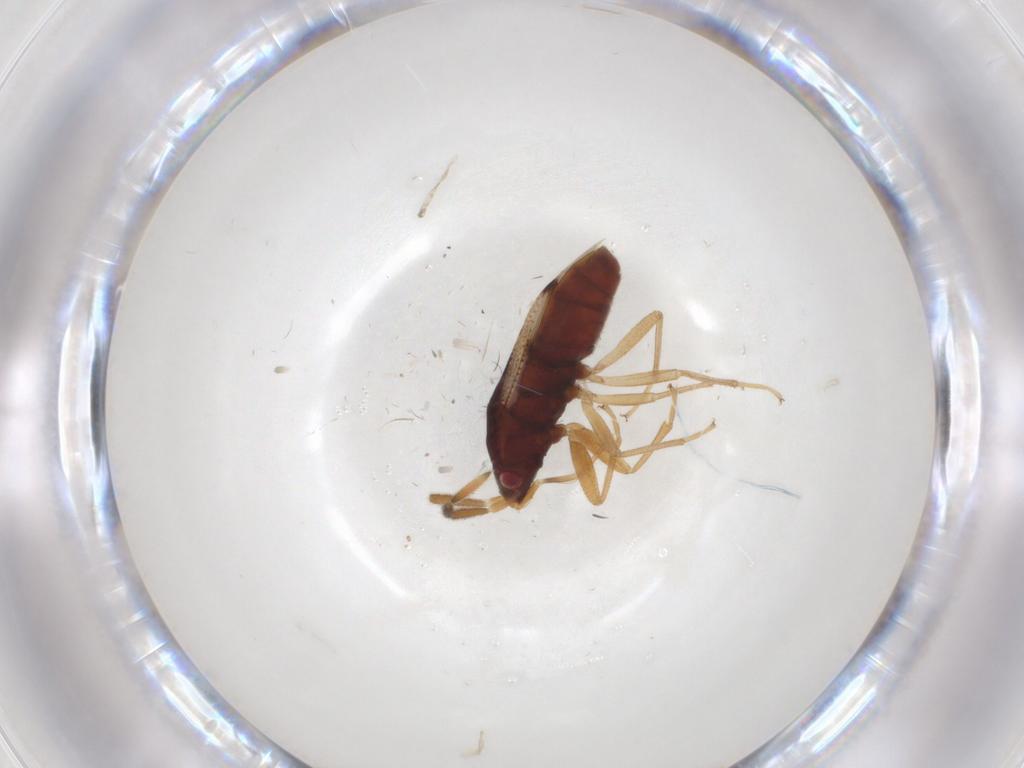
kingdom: Animalia
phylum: Arthropoda
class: Insecta
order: Hemiptera
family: Rhyparochromidae
